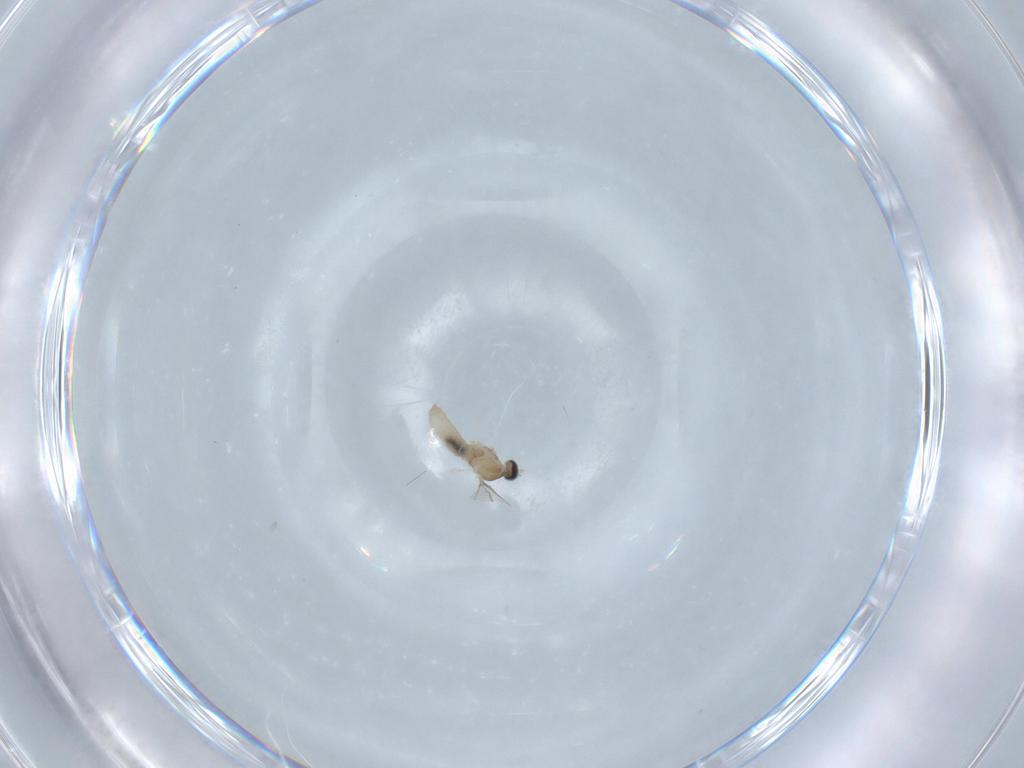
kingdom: Animalia
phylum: Arthropoda
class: Insecta
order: Diptera
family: Cecidomyiidae
